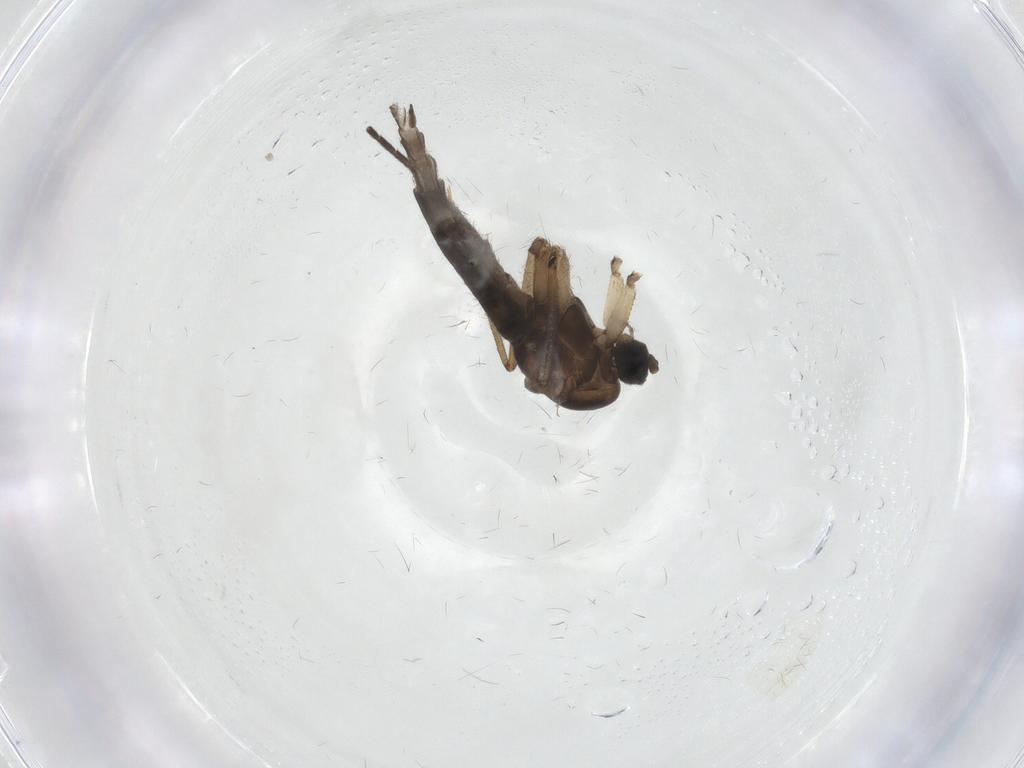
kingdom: Animalia
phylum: Arthropoda
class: Insecta
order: Diptera
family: Sciaridae
